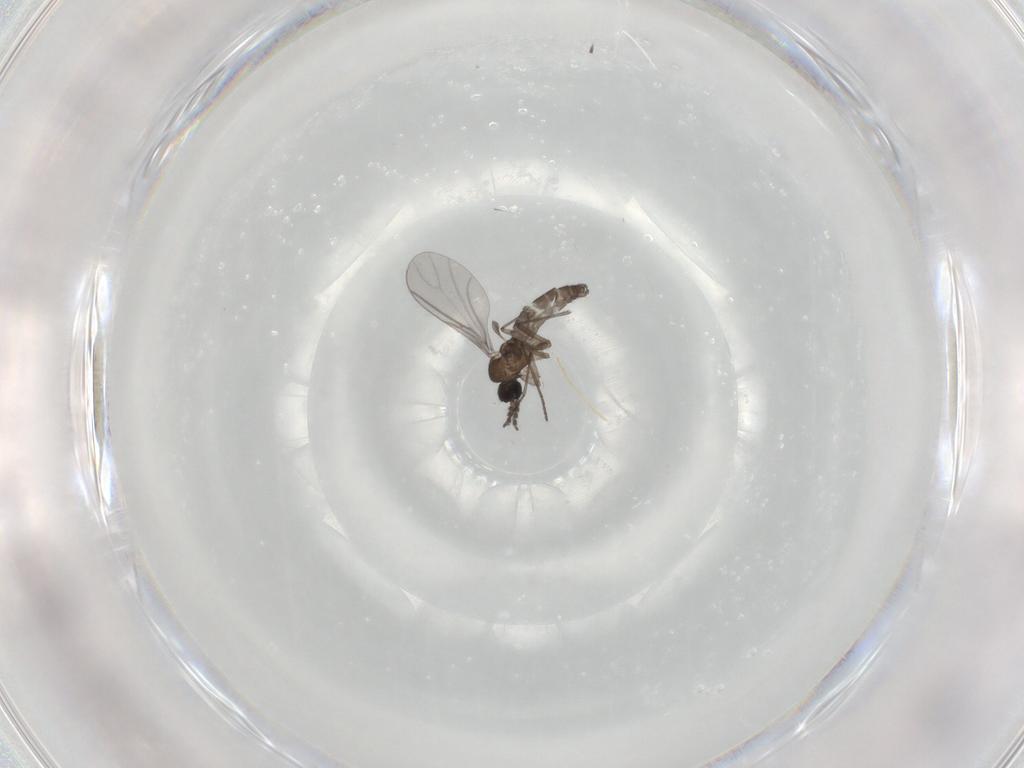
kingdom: Animalia
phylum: Arthropoda
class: Insecta
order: Diptera
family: Sciaridae
